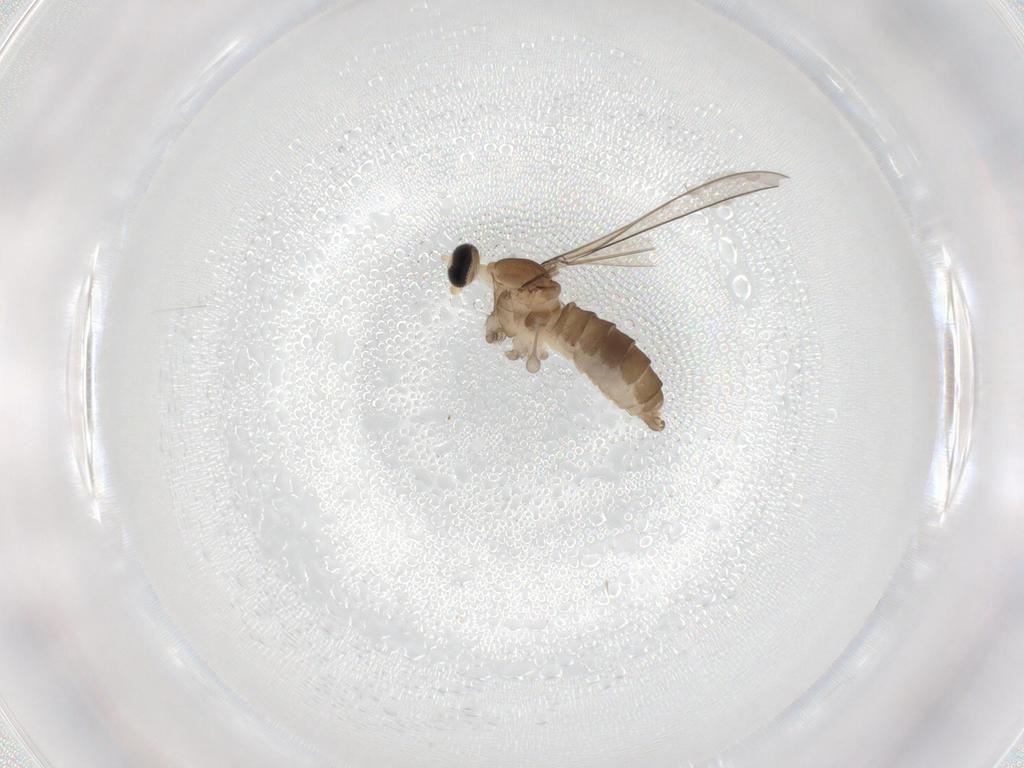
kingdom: Animalia
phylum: Arthropoda
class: Insecta
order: Diptera
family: Cecidomyiidae
